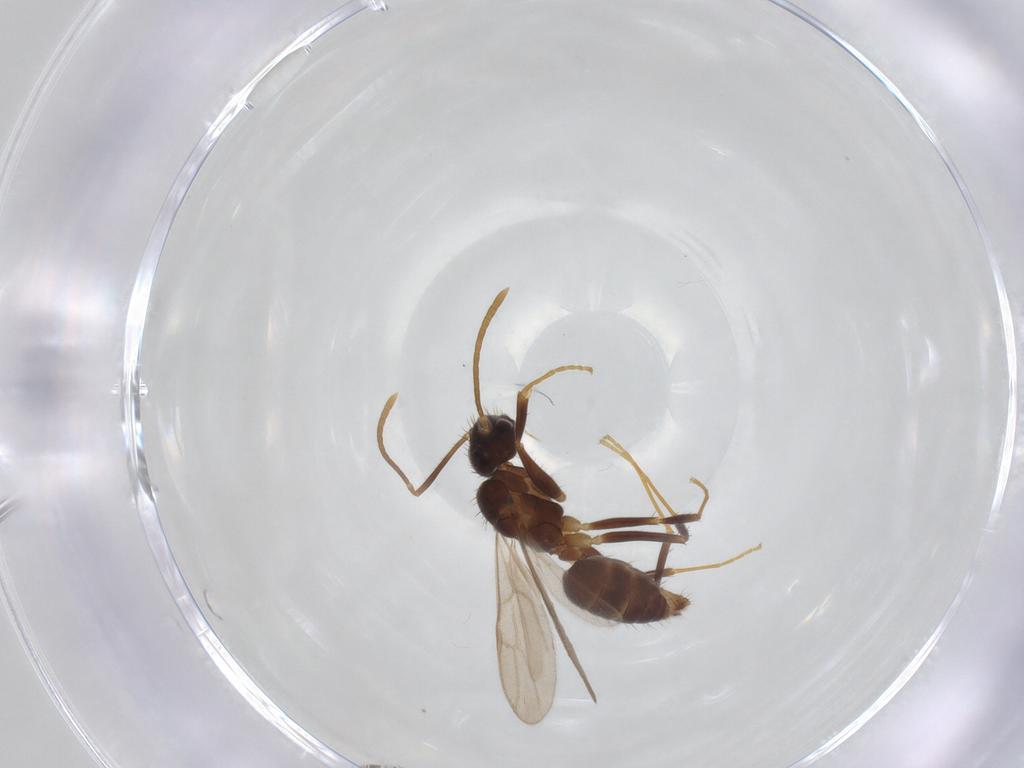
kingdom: Animalia
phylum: Arthropoda
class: Insecta
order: Hymenoptera
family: Formicidae
